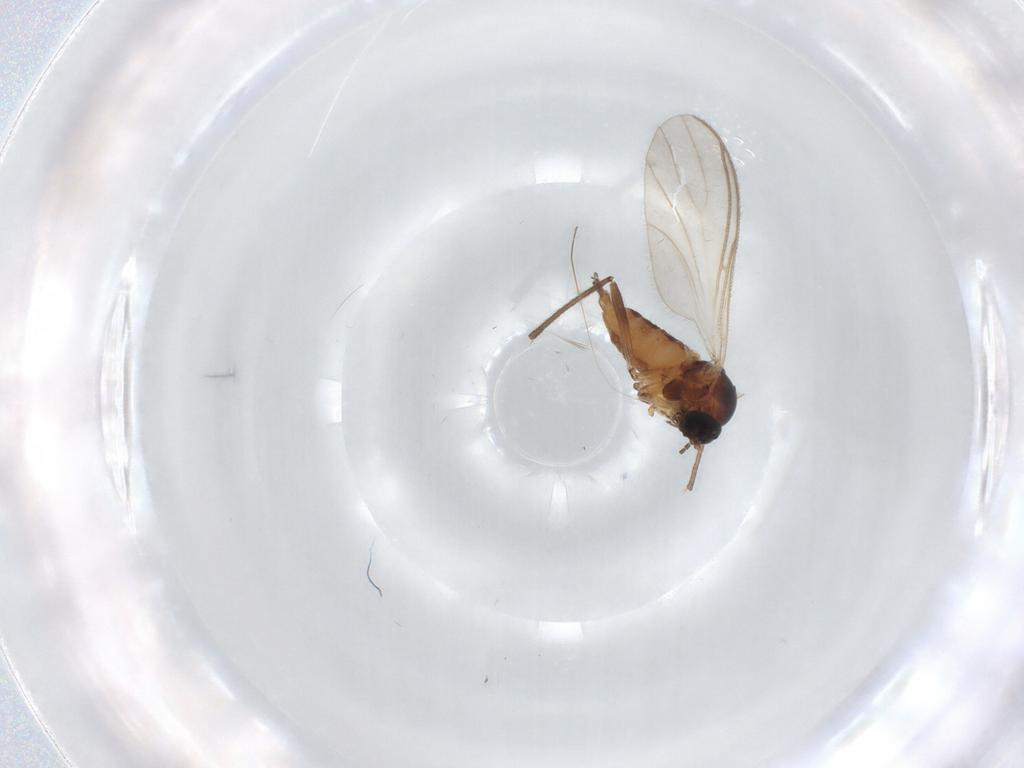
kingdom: Animalia
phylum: Arthropoda
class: Insecta
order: Diptera
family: Sciaridae
